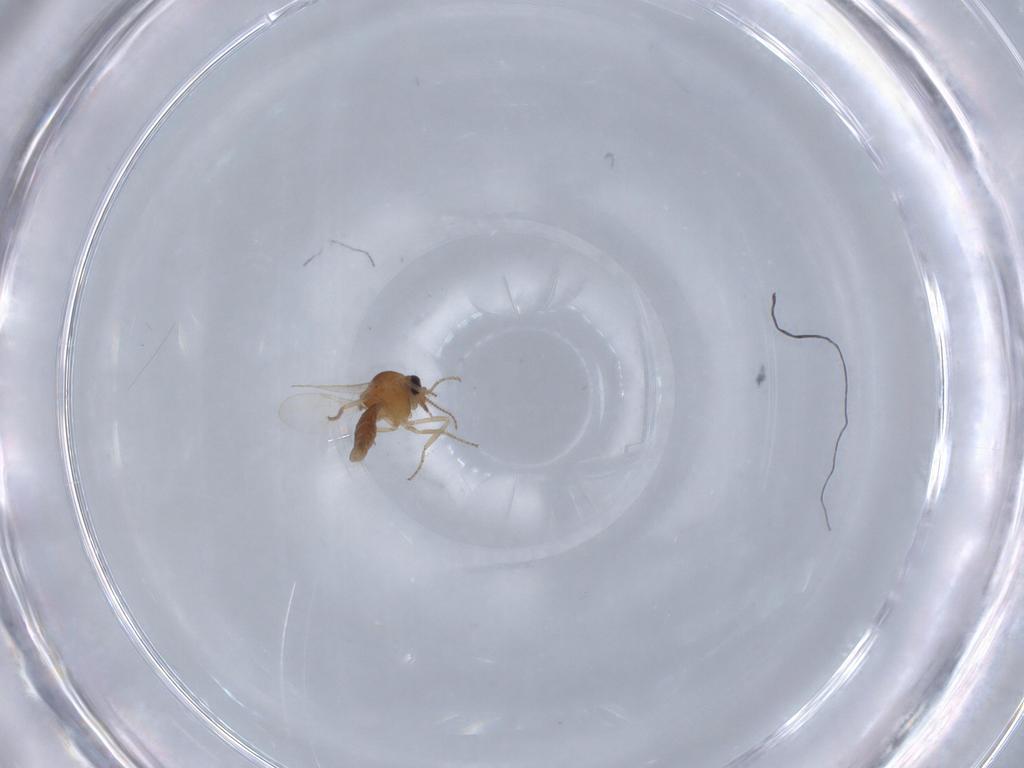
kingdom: Animalia
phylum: Arthropoda
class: Insecta
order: Diptera
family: Ceratopogonidae
